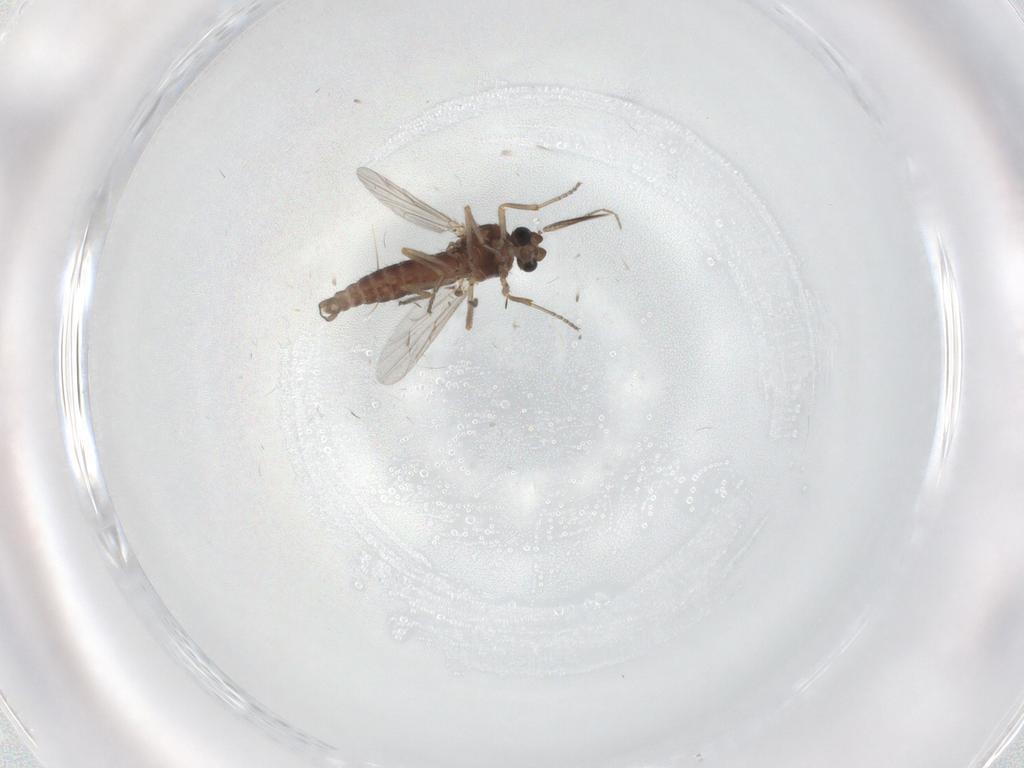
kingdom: Animalia
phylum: Arthropoda
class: Insecta
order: Diptera
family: Ceratopogonidae
